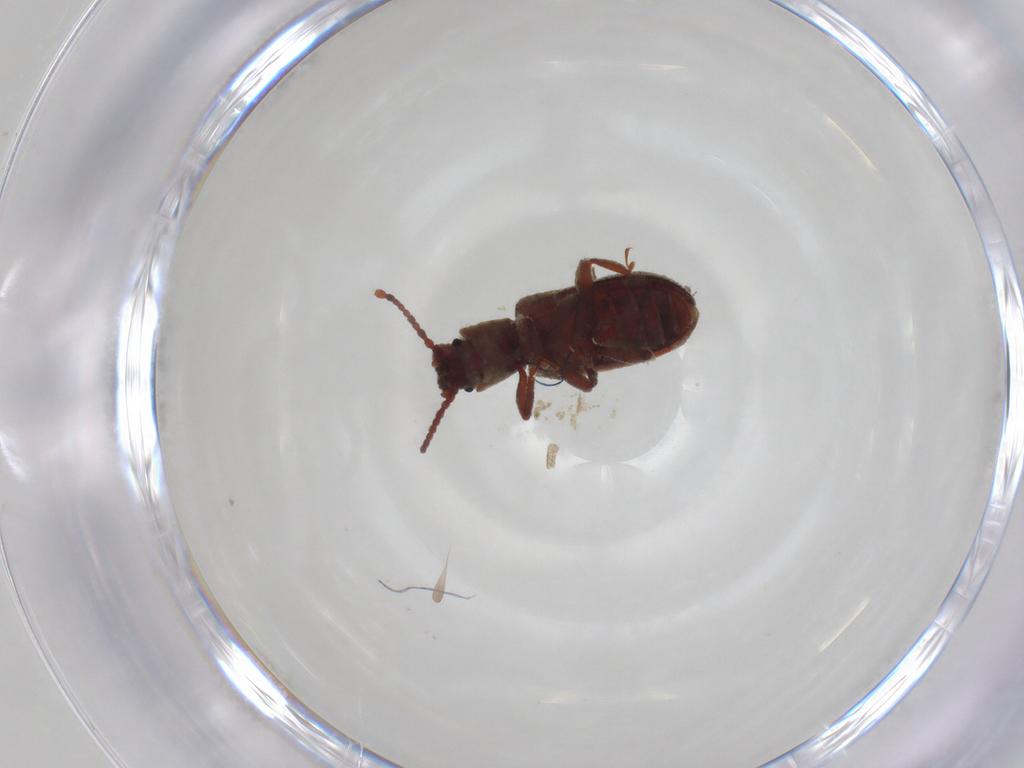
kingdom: Animalia
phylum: Arthropoda
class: Insecta
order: Coleoptera
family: Zopheridae
